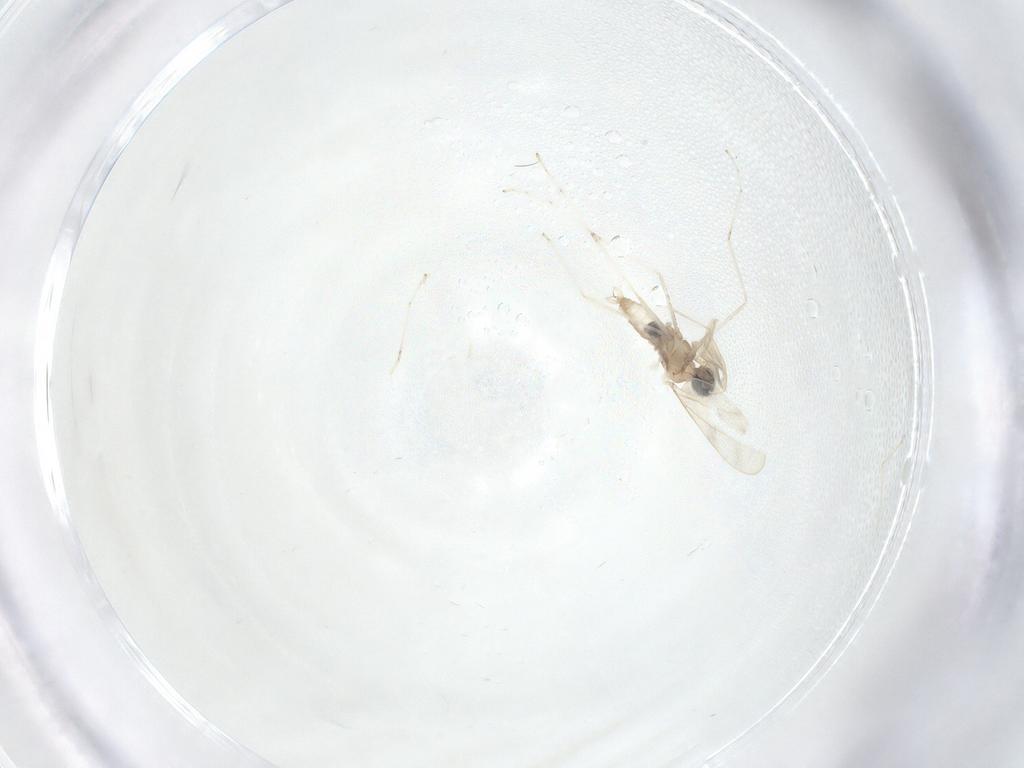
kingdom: Animalia
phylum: Arthropoda
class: Insecta
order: Diptera
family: Cecidomyiidae
